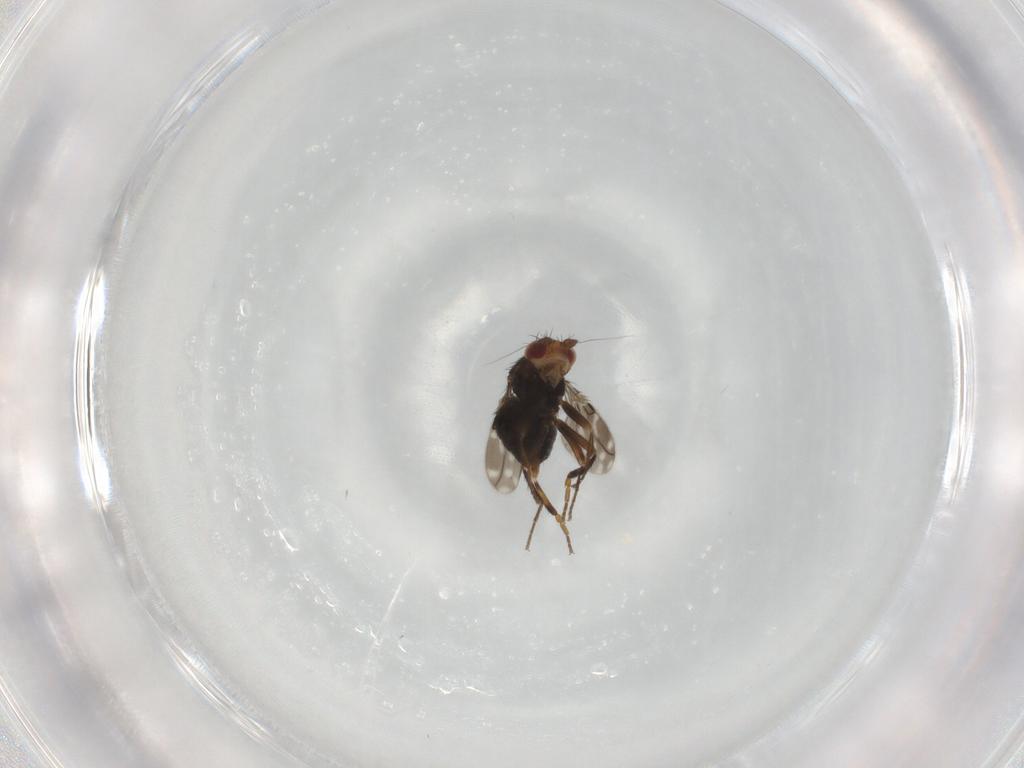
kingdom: Animalia
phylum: Arthropoda
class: Insecta
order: Diptera
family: Sphaeroceridae
